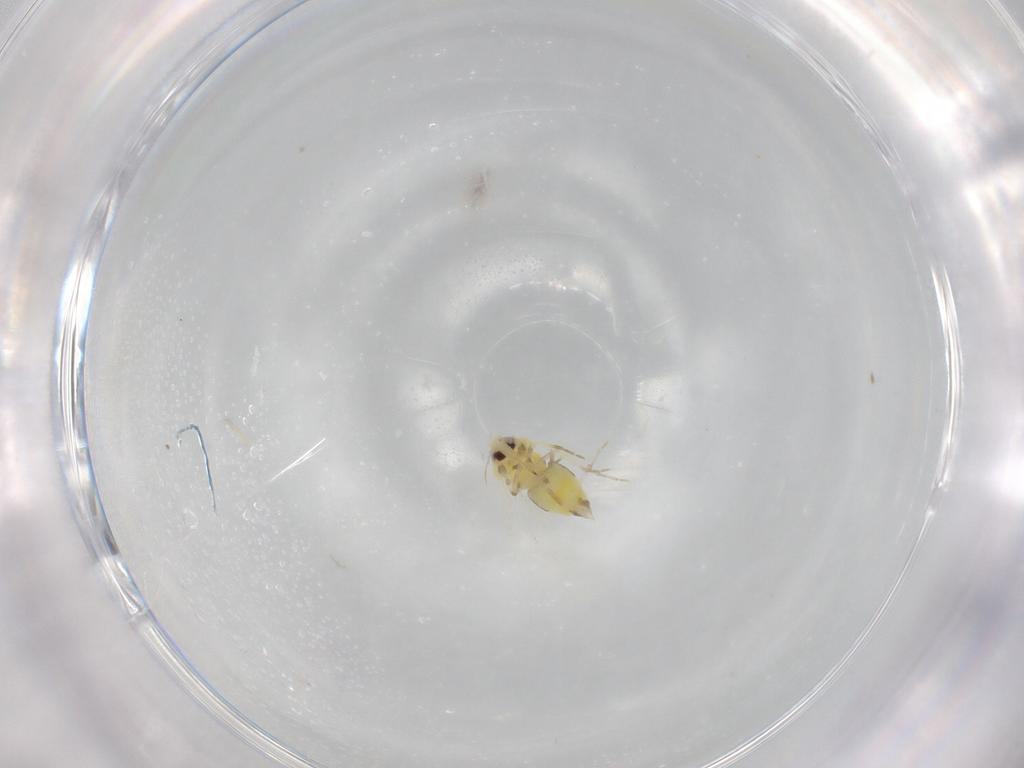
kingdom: Animalia
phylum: Arthropoda
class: Insecta
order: Hemiptera
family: Aleyrodidae
